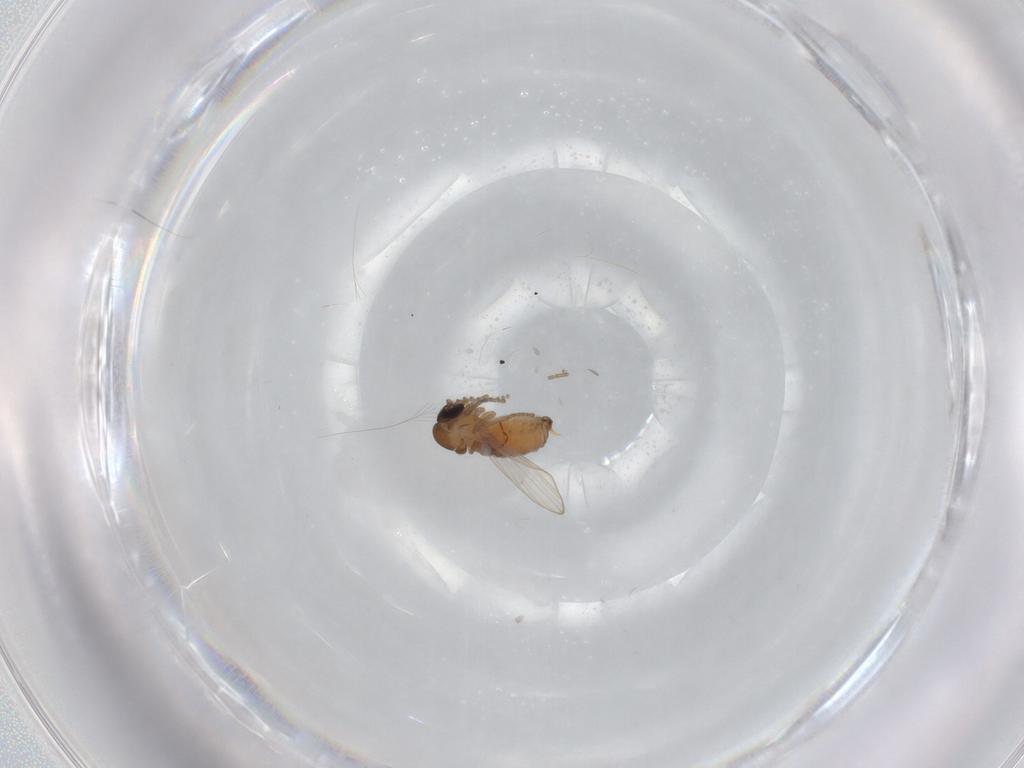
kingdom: Animalia
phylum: Arthropoda
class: Insecta
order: Diptera
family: Psychodidae
